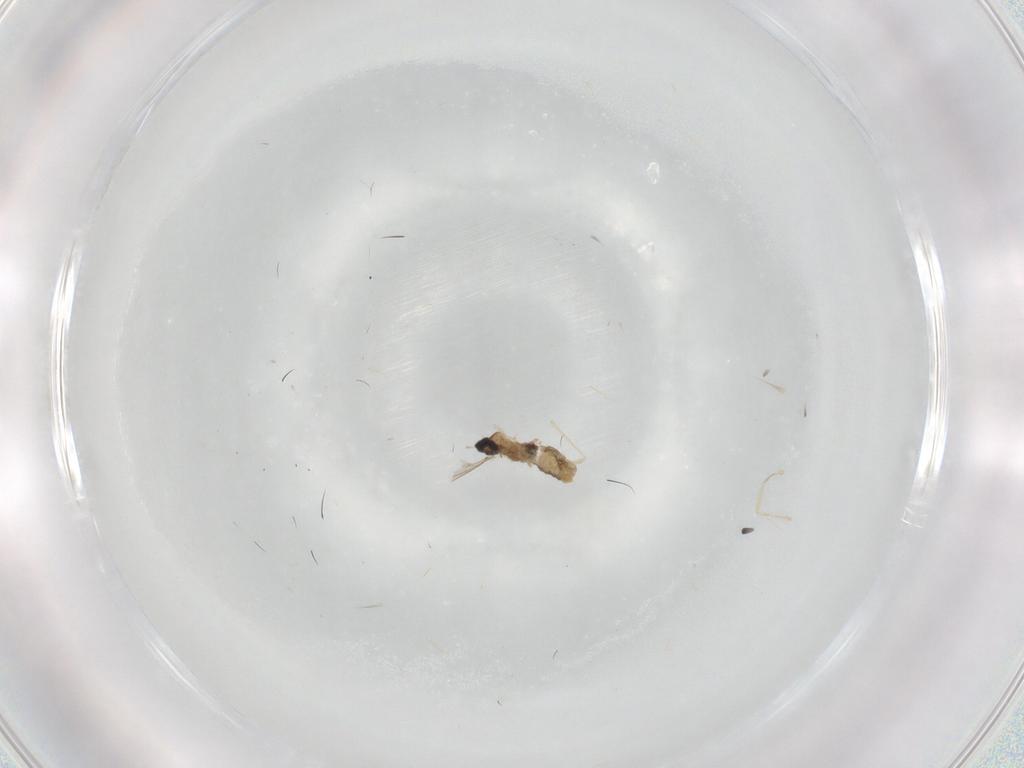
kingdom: Animalia
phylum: Arthropoda
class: Insecta
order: Diptera
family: Cecidomyiidae
